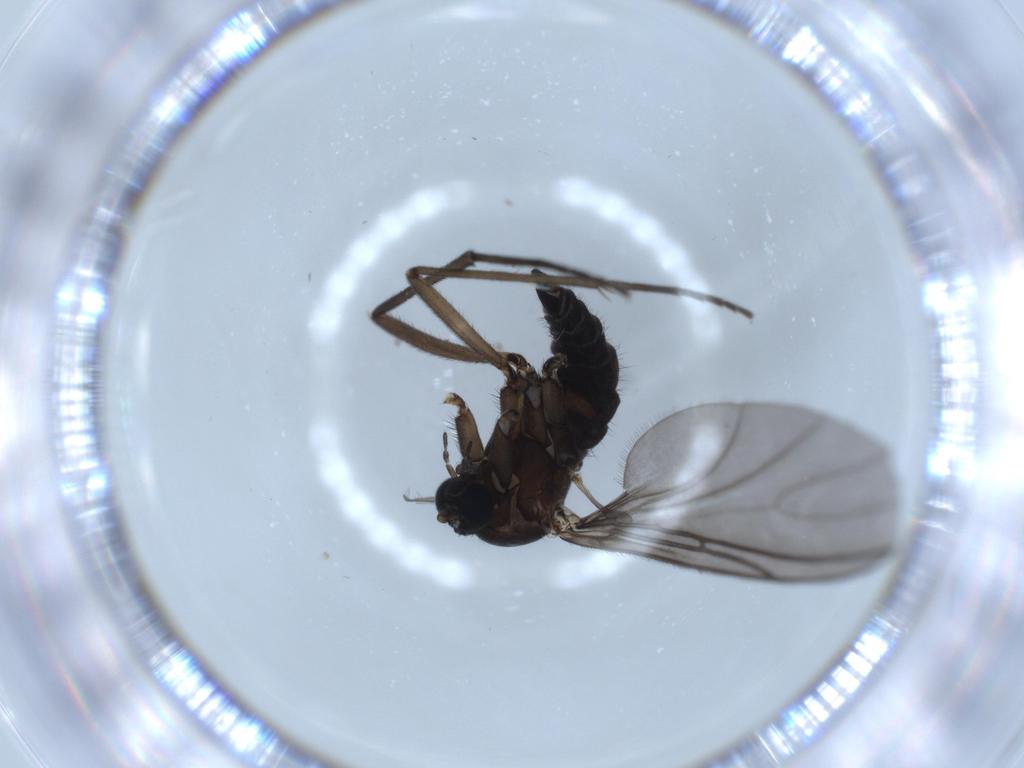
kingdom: Animalia
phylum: Arthropoda
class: Insecta
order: Diptera
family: Sciaridae
